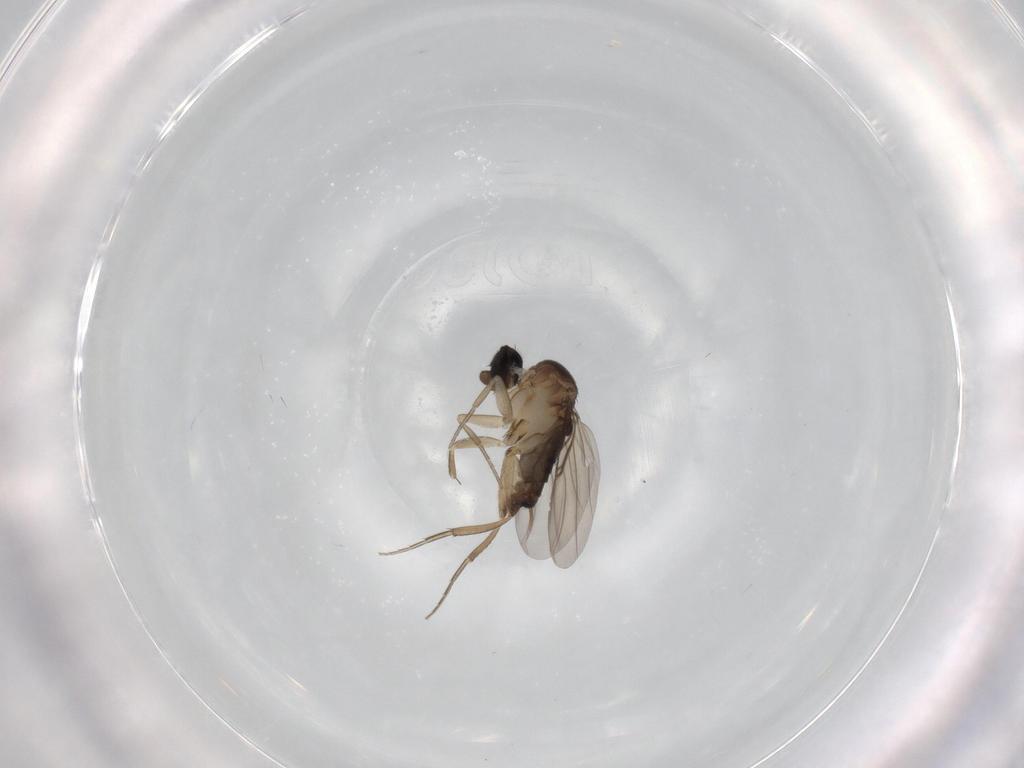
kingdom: Animalia
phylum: Arthropoda
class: Insecta
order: Diptera
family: Phoridae
